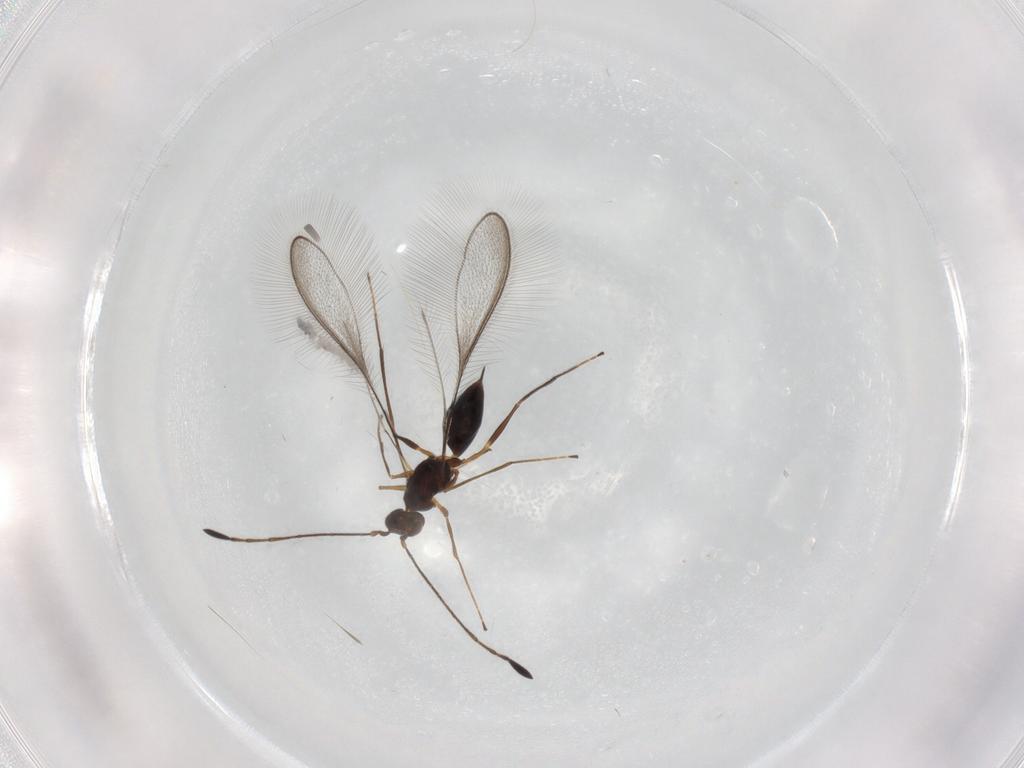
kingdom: Animalia
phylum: Arthropoda
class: Insecta
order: Hymenoptera
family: Mymaridae
